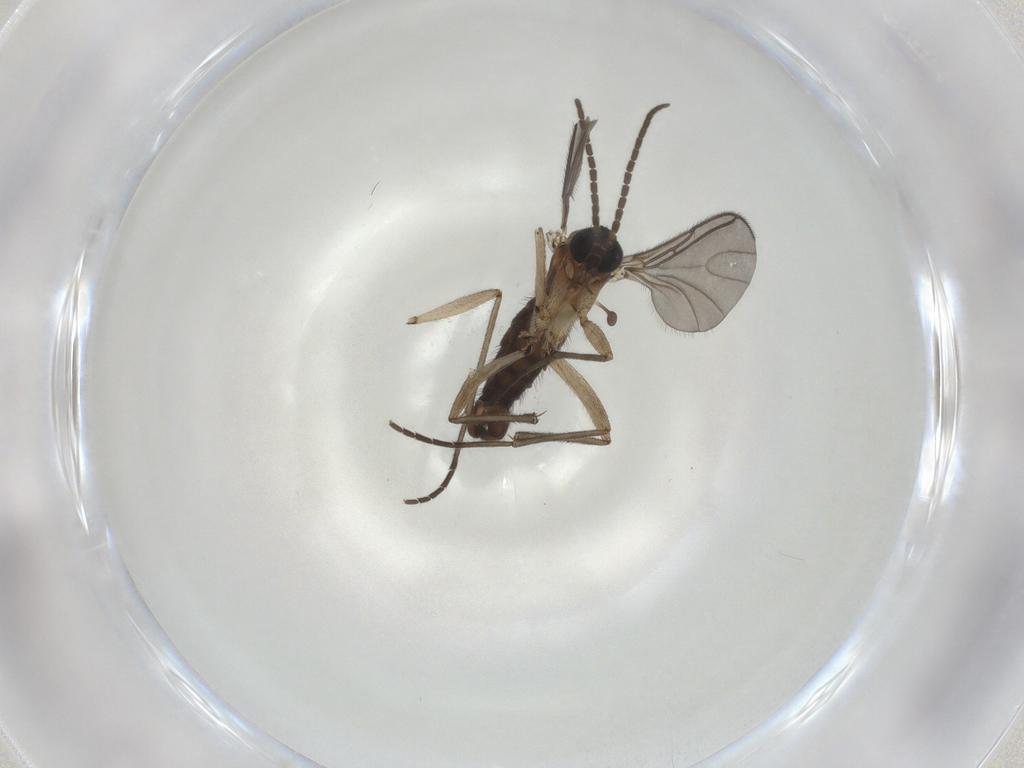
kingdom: Animalia
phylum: Arthropoda
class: Insecta
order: Diptera
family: Sciaridae
